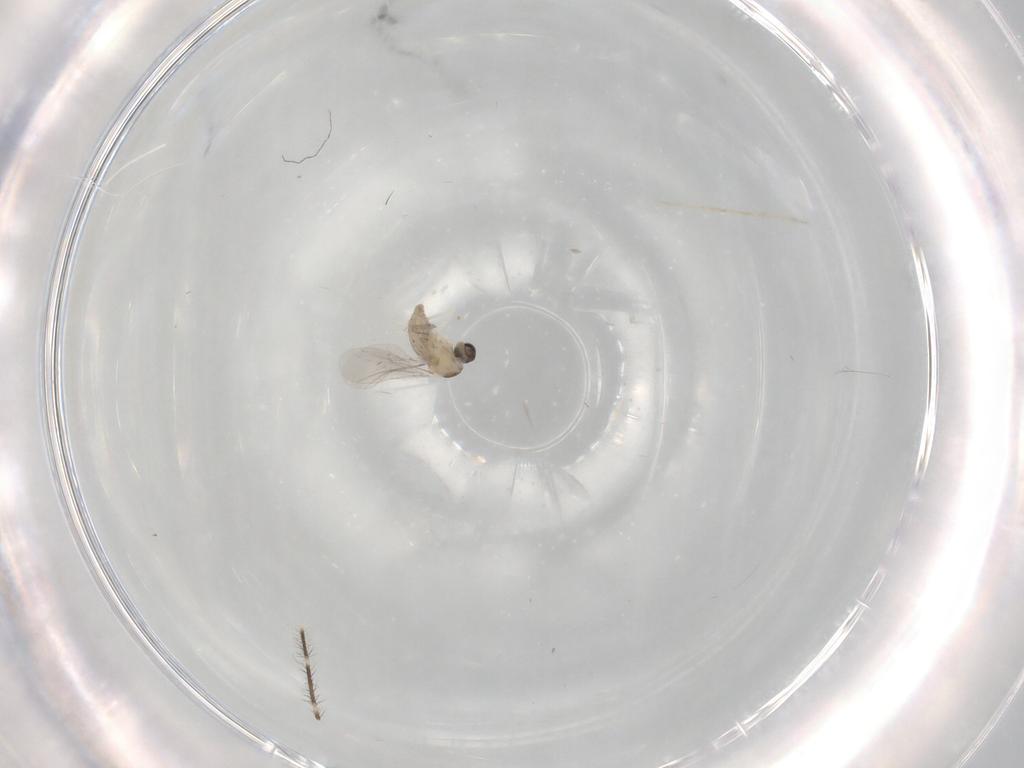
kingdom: Animalia
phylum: Arthropoda
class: Insecta
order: Diptera
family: Cecidomyiidae
